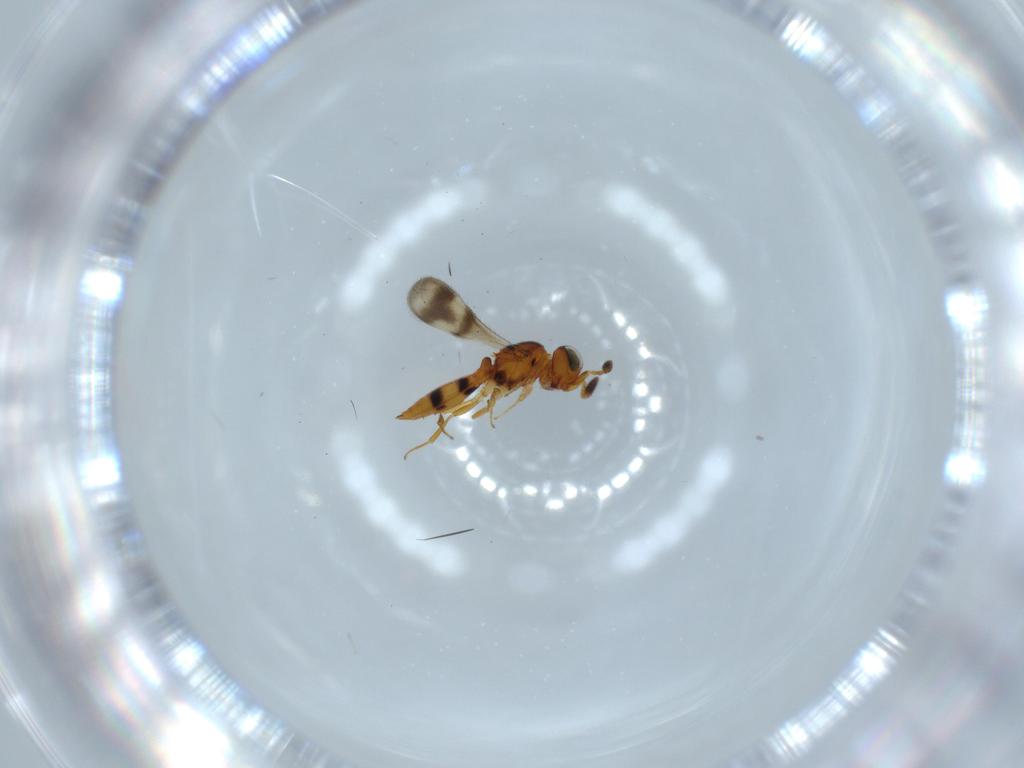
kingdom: Animalia
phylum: Arthropoda
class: Insecta
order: Hymenoptera
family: Scelionidae
